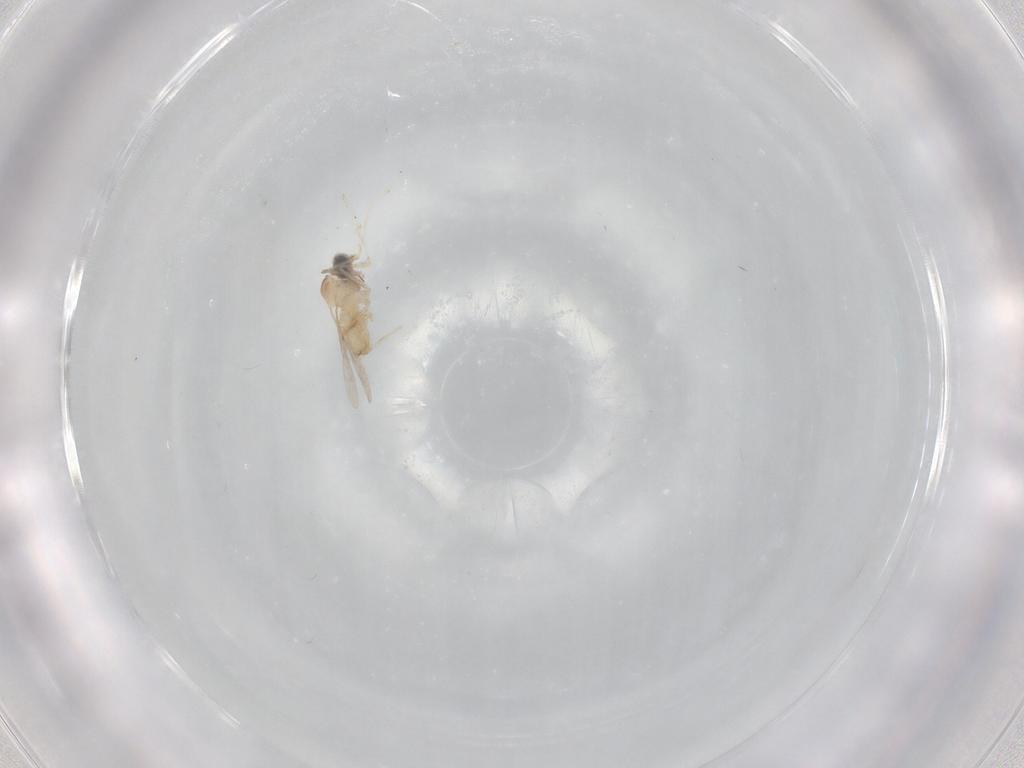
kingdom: Animalia
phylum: Arthropoda
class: Insecta
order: Diptera
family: Cecidomyiidae
